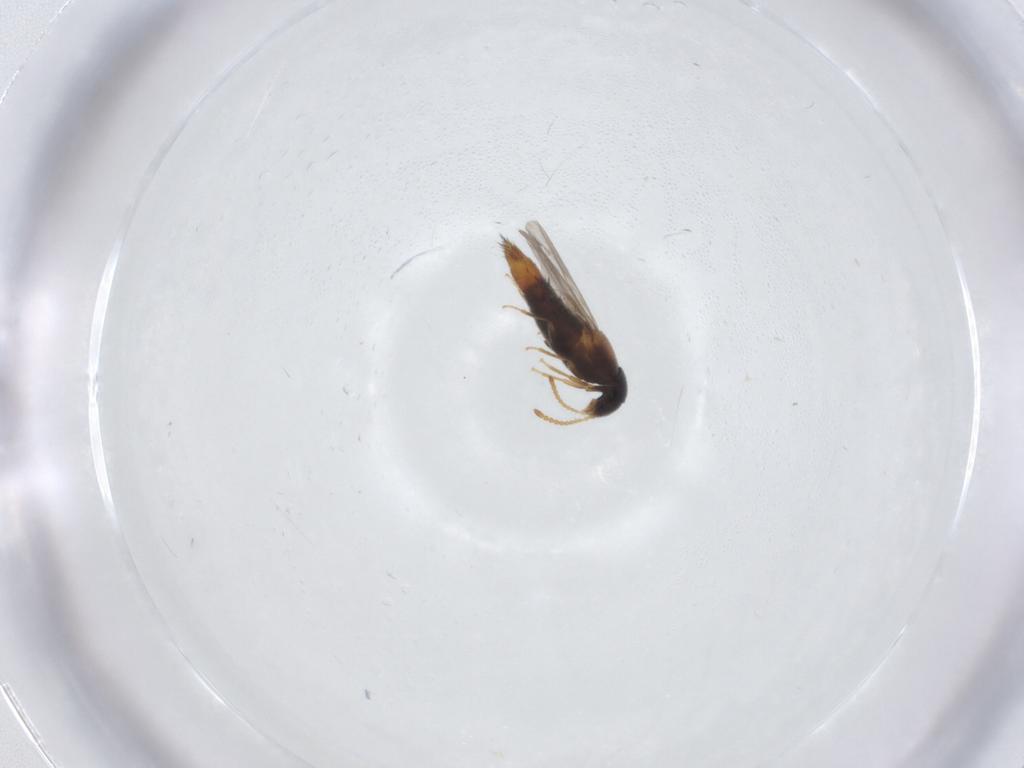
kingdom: Animalia
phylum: Arthropoda
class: Insecta
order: Coleoptera
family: Staphylinidae
